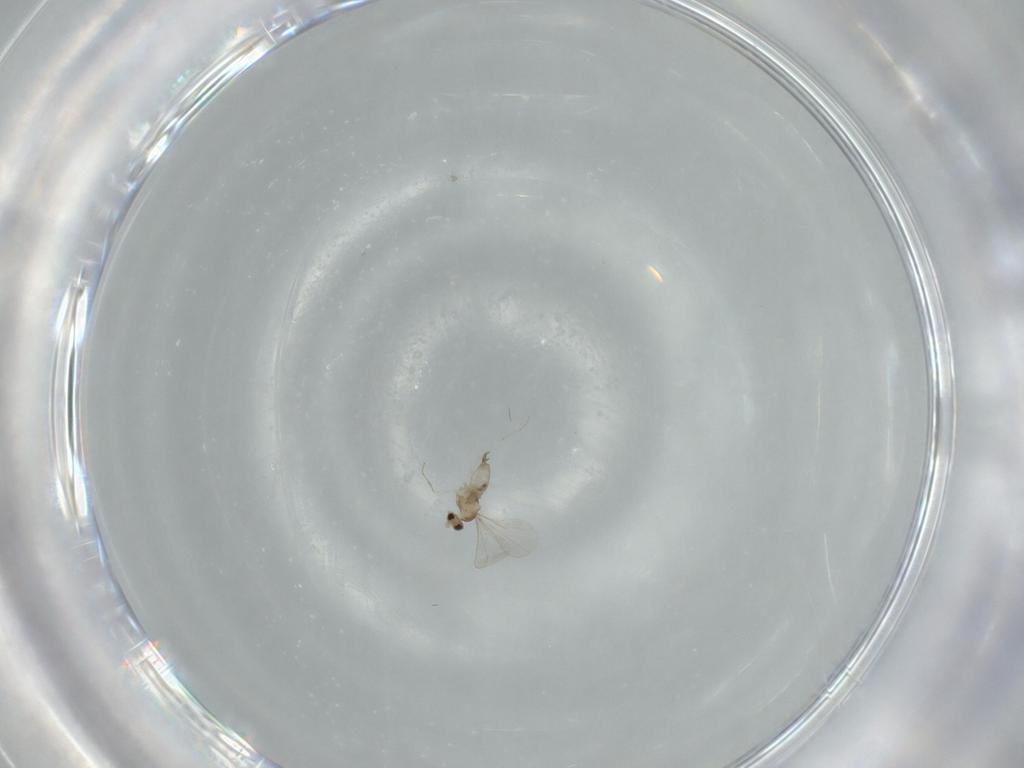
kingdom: Animalia
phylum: Arthropoda
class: Insecta
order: Diptera
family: Cecidomyiidae
